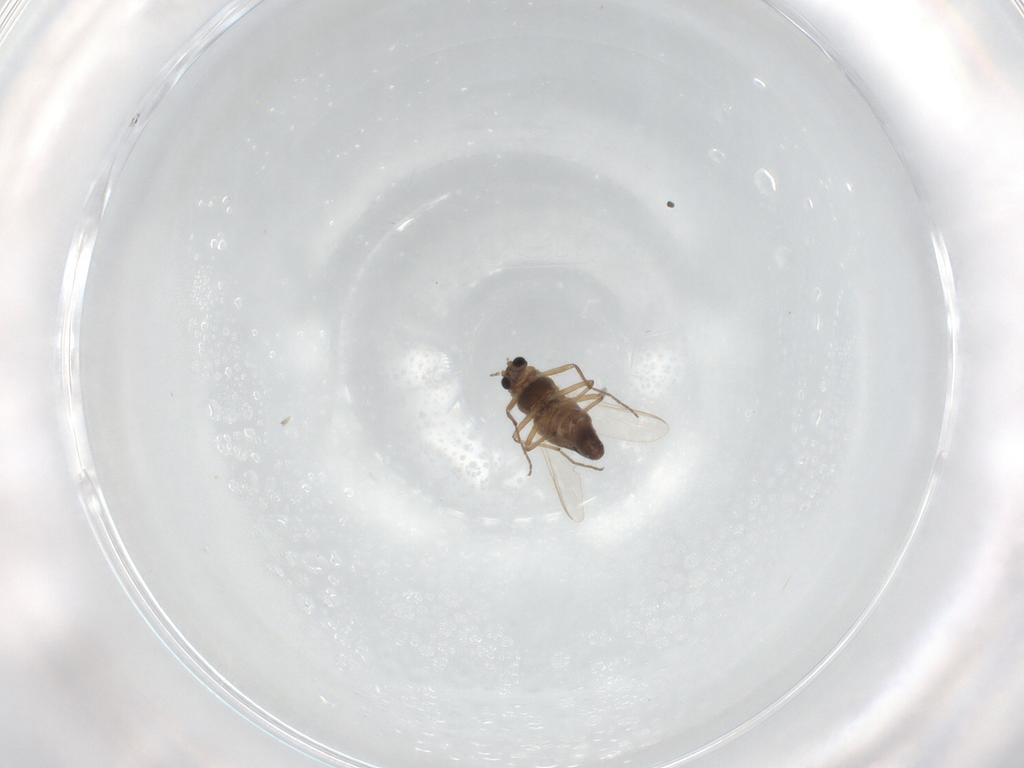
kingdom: Animalia
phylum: Arthropoda
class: Insecta
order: Diptera
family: Chironomidae
